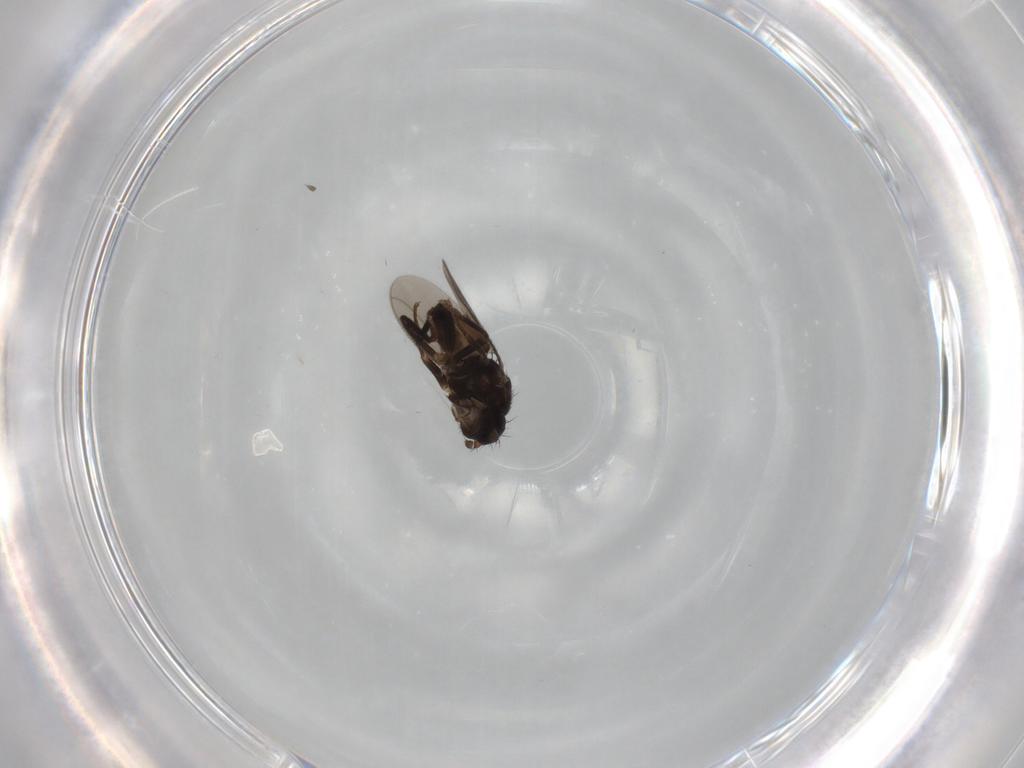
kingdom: Animalia
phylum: Arthropoda
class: Insecta
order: Diptera
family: Sphaeroceridae
